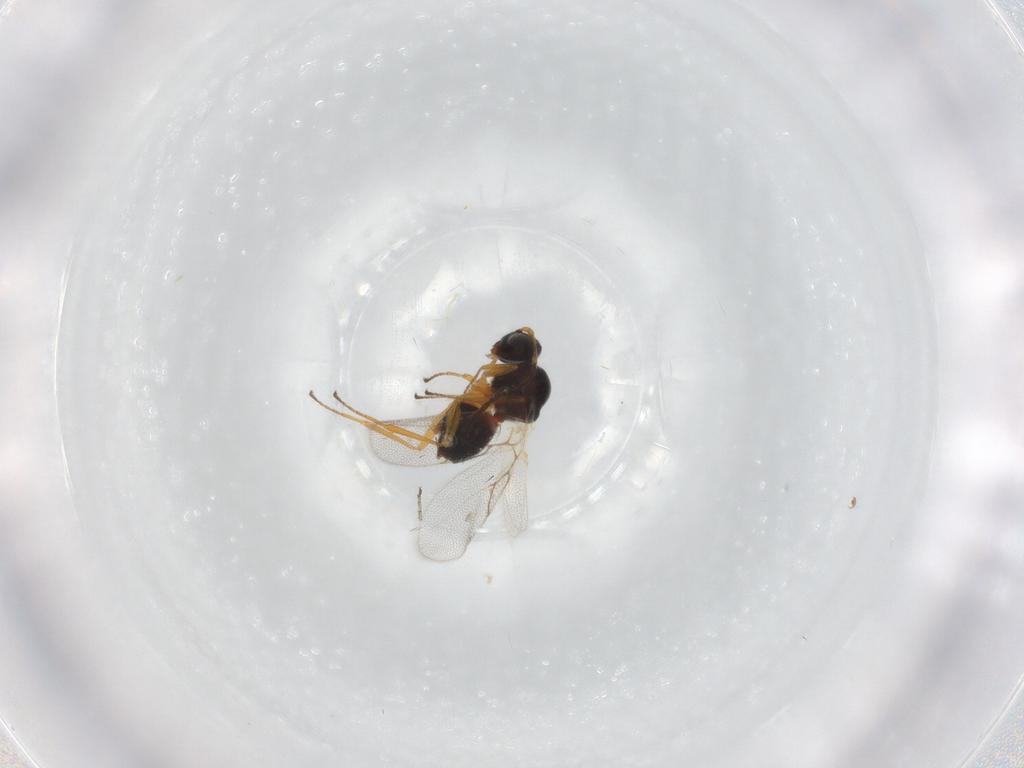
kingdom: Animalia
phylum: Arthropoda
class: Insecta
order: Hymenoptera
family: Figitidae
